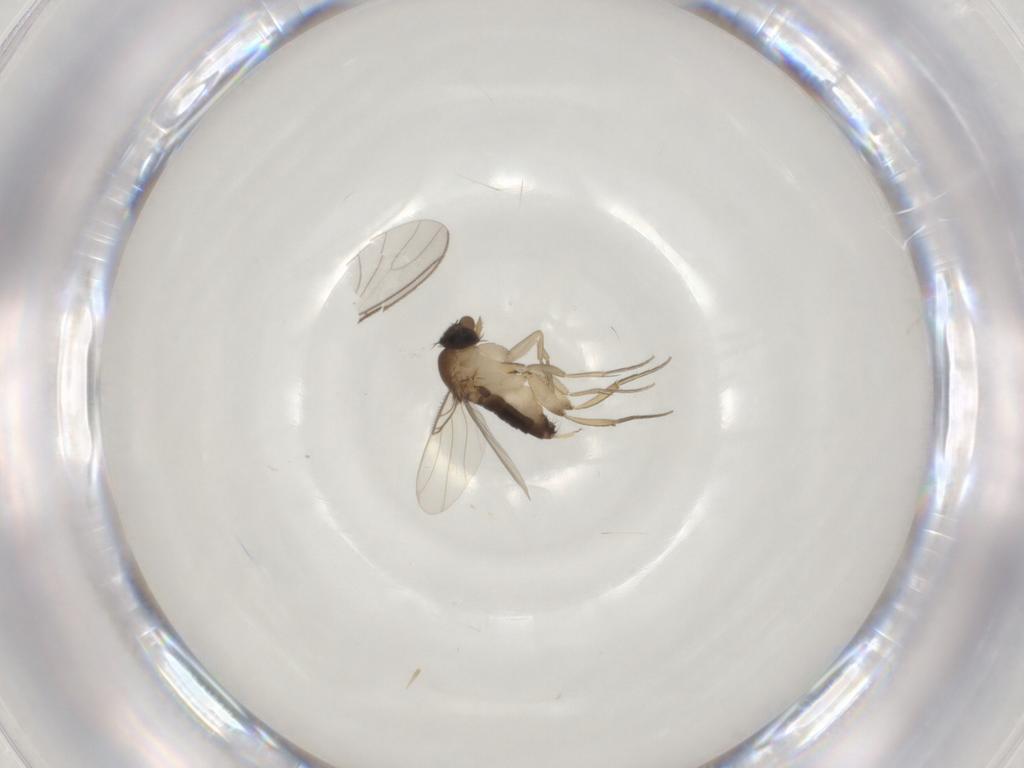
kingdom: Animalia
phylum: Arthropoda
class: Insecta
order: Diptera
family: Phoridae
